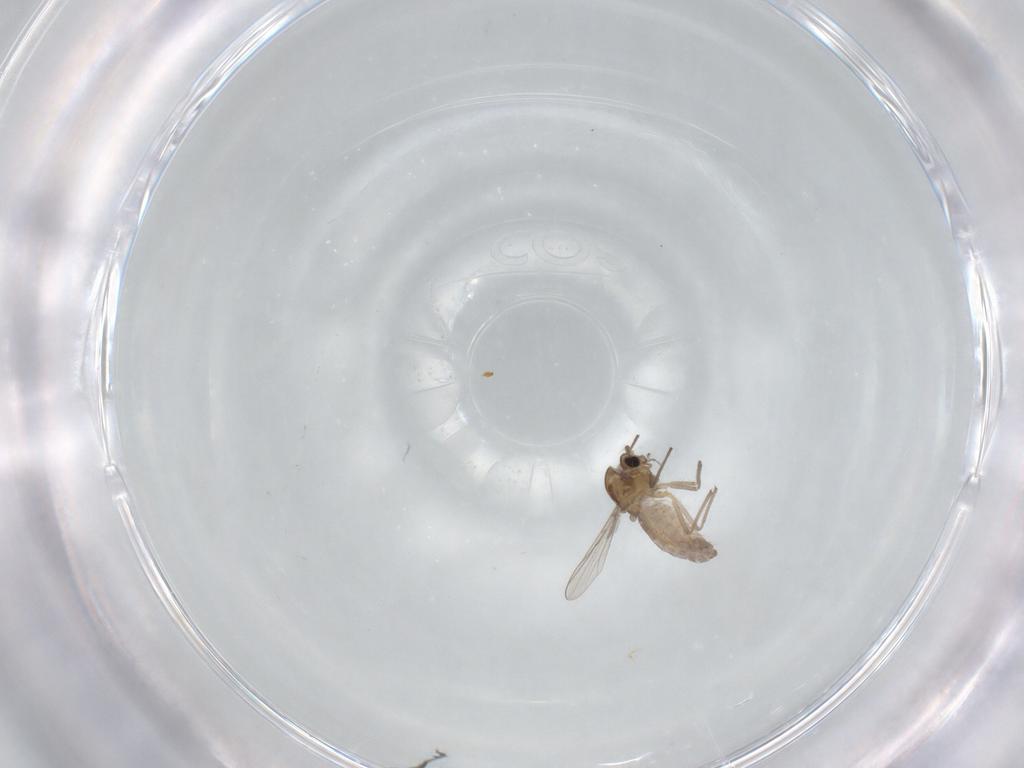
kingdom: Animalia
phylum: Arthropoda
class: Insecta
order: Diptera
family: Chironomidae
